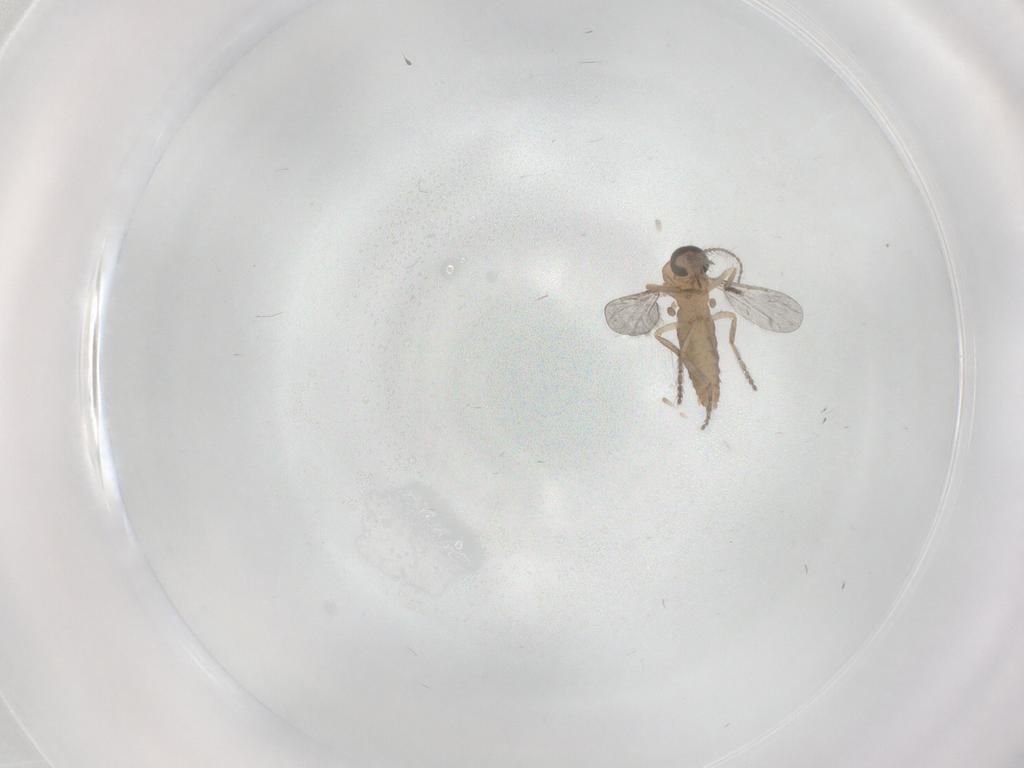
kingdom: Animalia
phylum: Arthropoda
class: Insecta
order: Diptera
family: Ceratopogonidae
